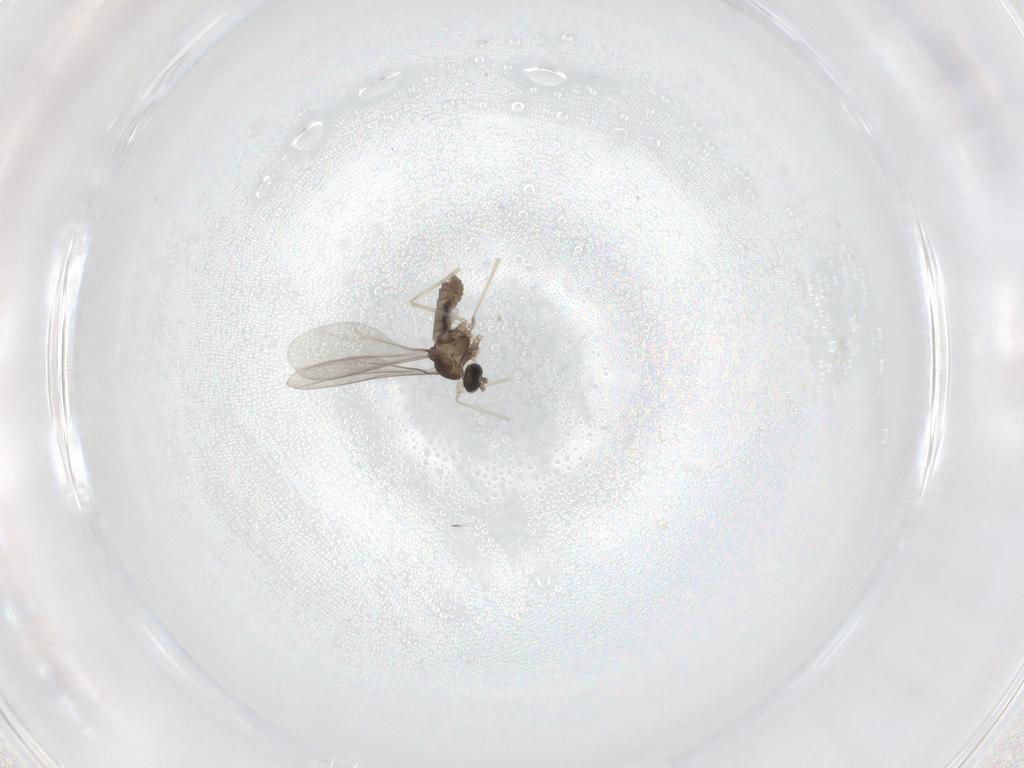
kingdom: Animalia
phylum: Arthropoda
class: Insecta
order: Diptera
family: Cecidomyiidae
